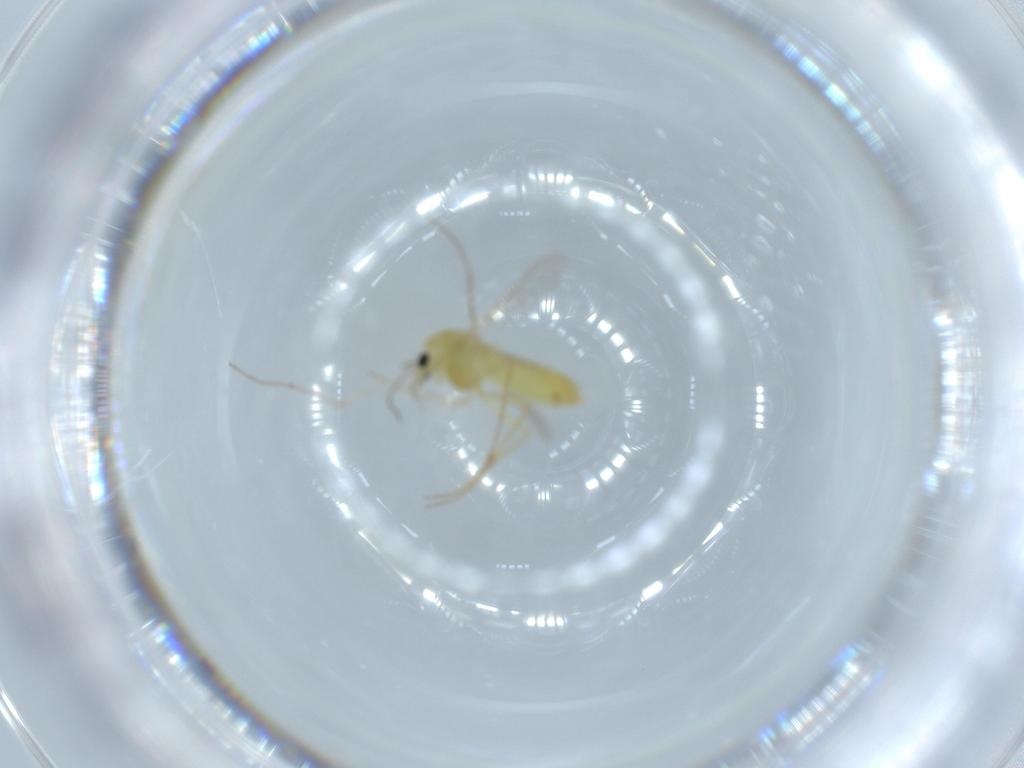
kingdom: Animalia
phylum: Arthropoda
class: Insecta
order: Diptera
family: Chironomidae
